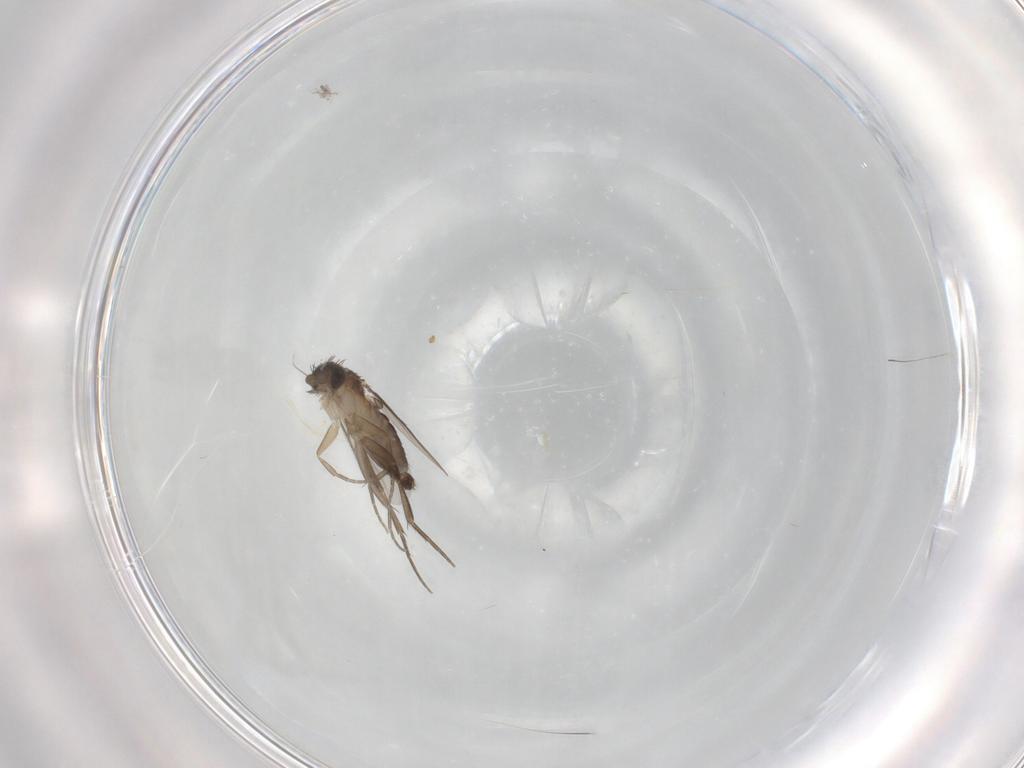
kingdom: Animalia
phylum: Arthropoda
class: Insecta
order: Diptera
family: Phoridae
